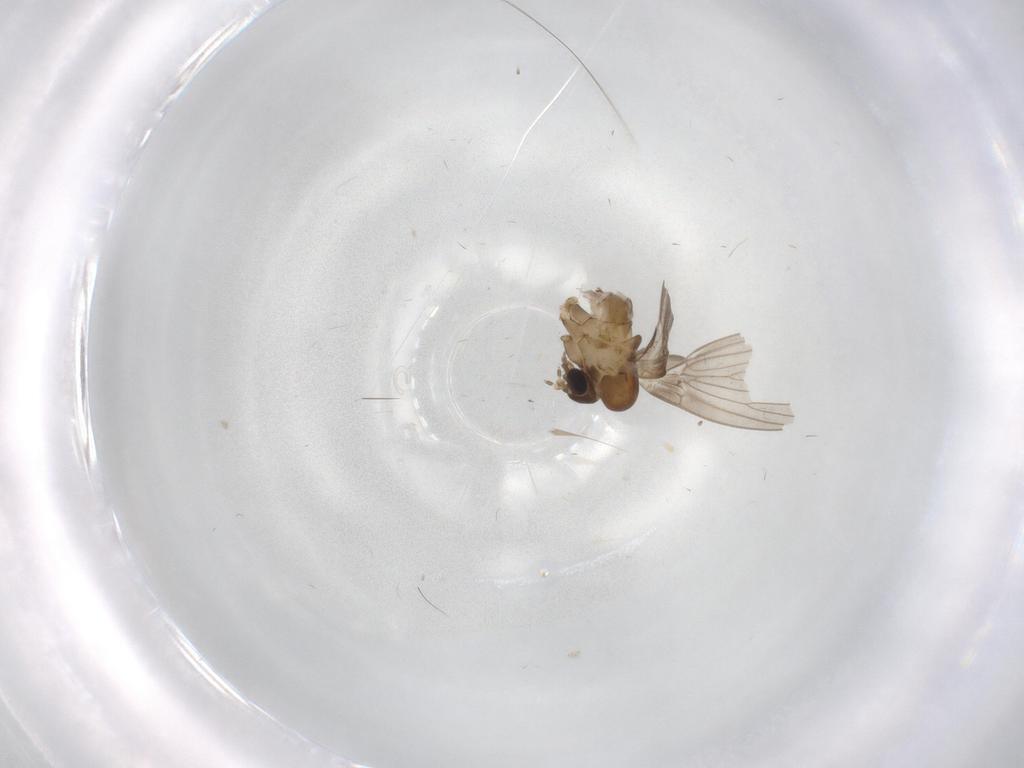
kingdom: Animalia
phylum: Arthropoda
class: Insecta
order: Diptera
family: Psychodidae
